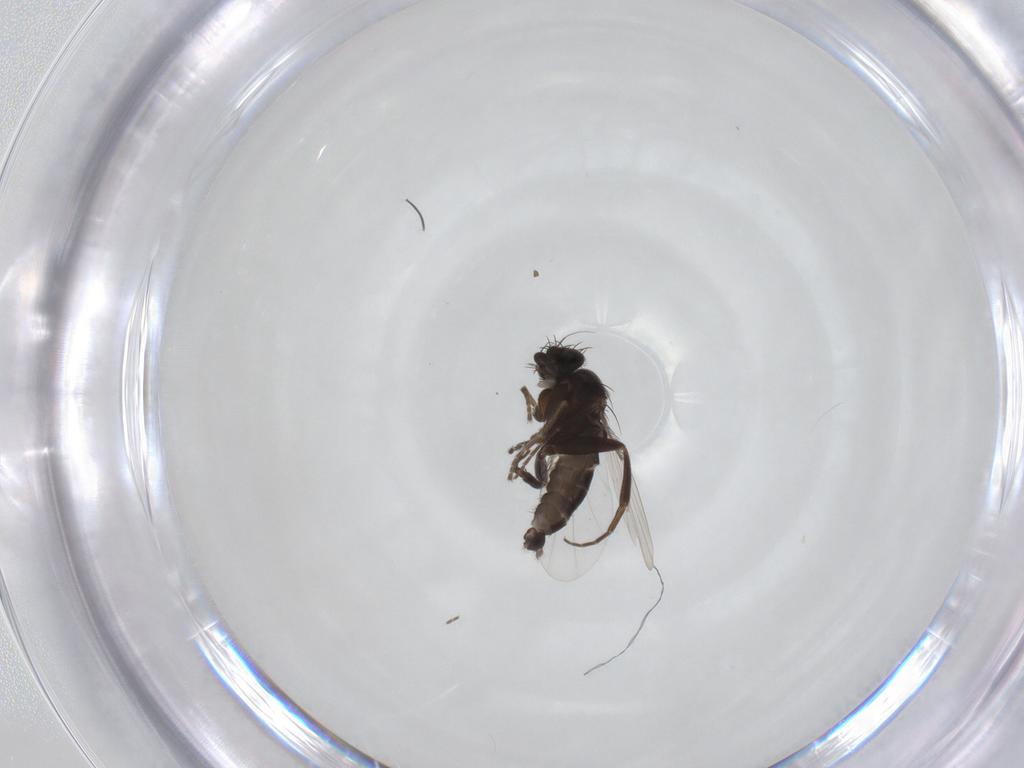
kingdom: Animalia
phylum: Arthropoda
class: Insecta
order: Diptera
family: Phoridae
